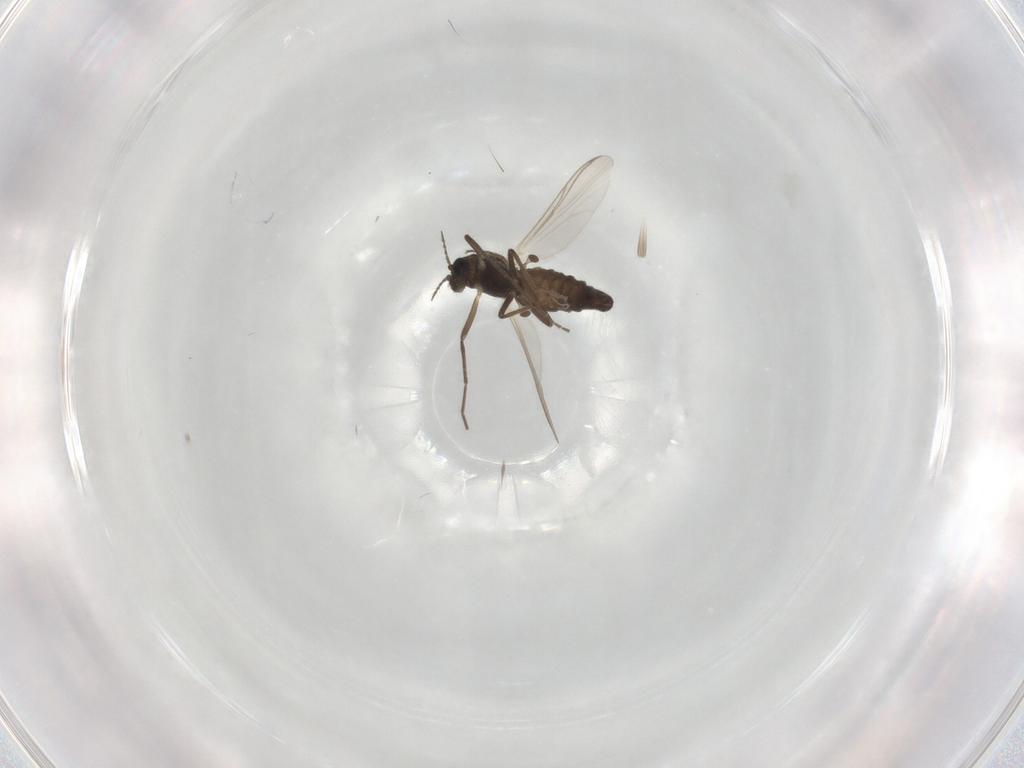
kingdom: Animalia
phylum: Arthropoda
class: Insecta
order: Diptera
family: Chironomidae
